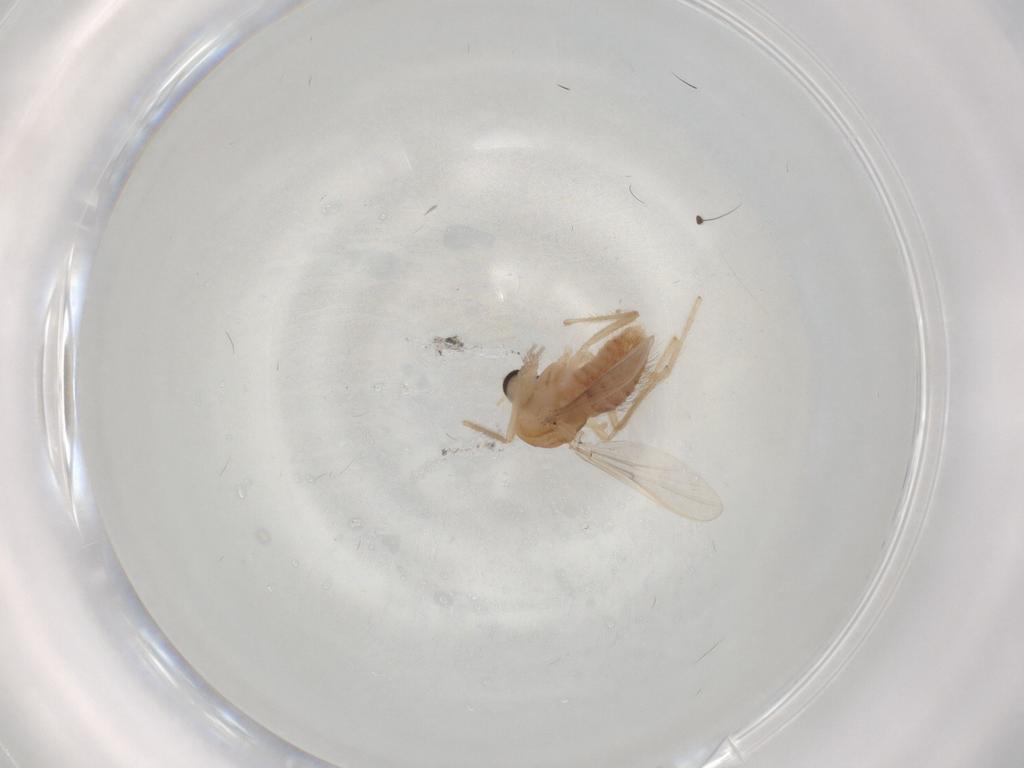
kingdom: Animalia
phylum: Arthropoda
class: Insecta
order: Diptera
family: Chironomidae
